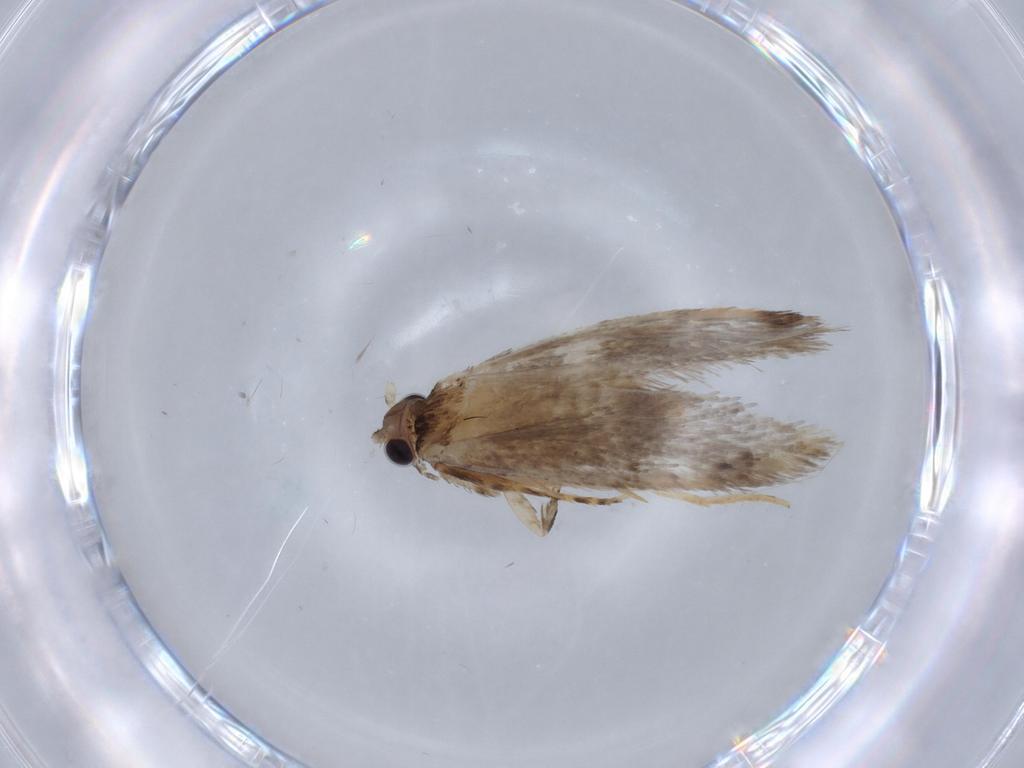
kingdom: Animalia
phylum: Arthropoda
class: Insecta
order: Lepidoptera
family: Tineidae
